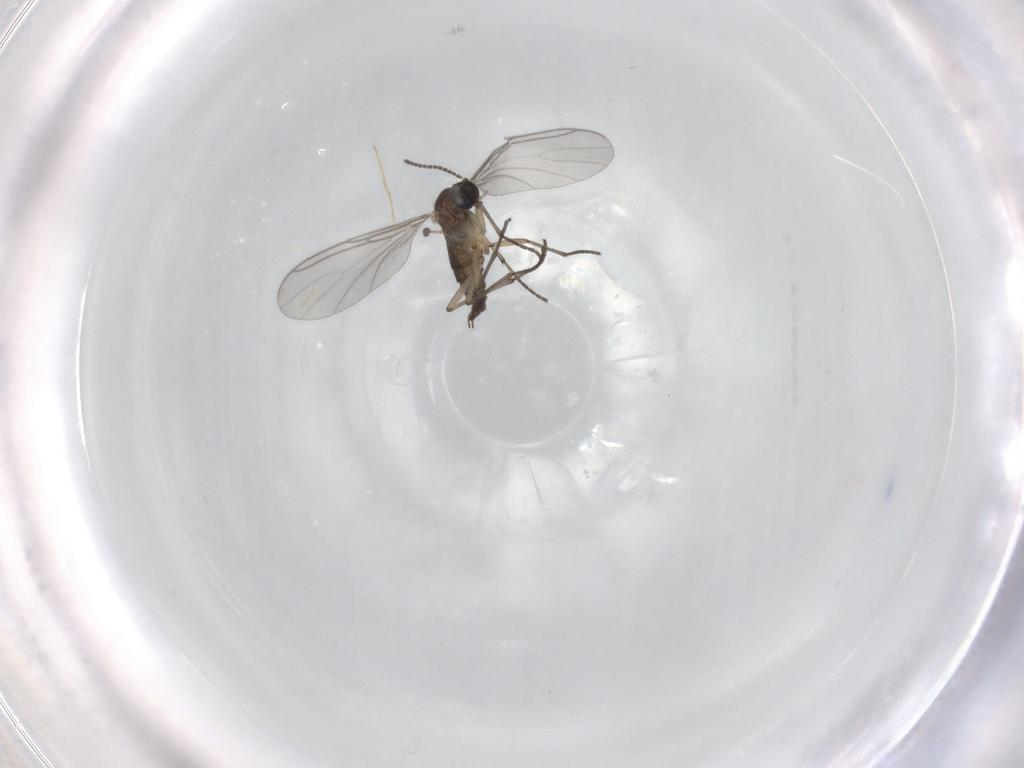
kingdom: Animalia
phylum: Arthropoda
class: Insecta
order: Diptera
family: Sciaridae
